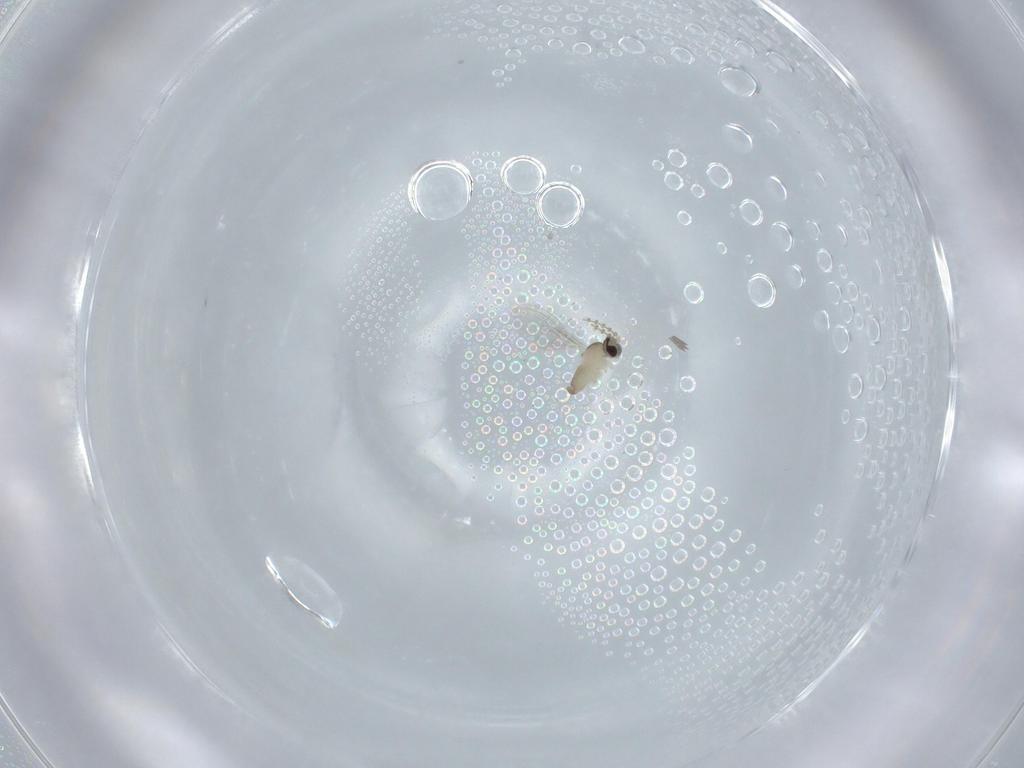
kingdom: Animalia
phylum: Arthropoda
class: Insecta
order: Diptera
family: Cecidomyiidae
